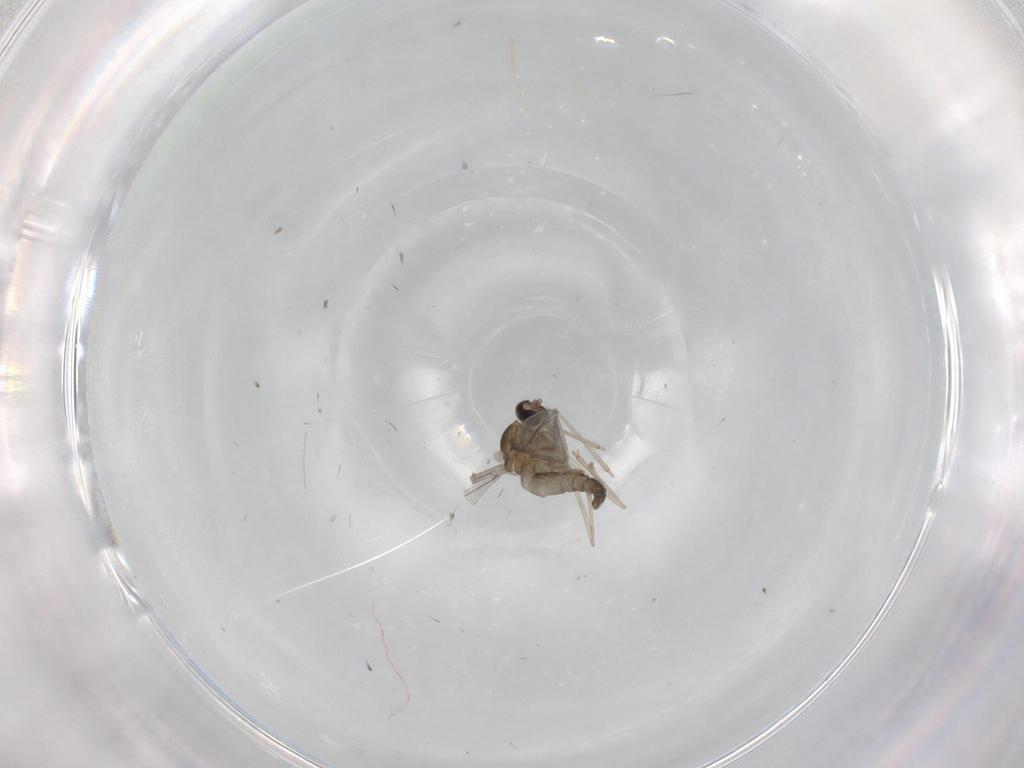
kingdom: Animalia
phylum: Arthropoda
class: Insecta
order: Diptera
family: Cecidomyiidae
